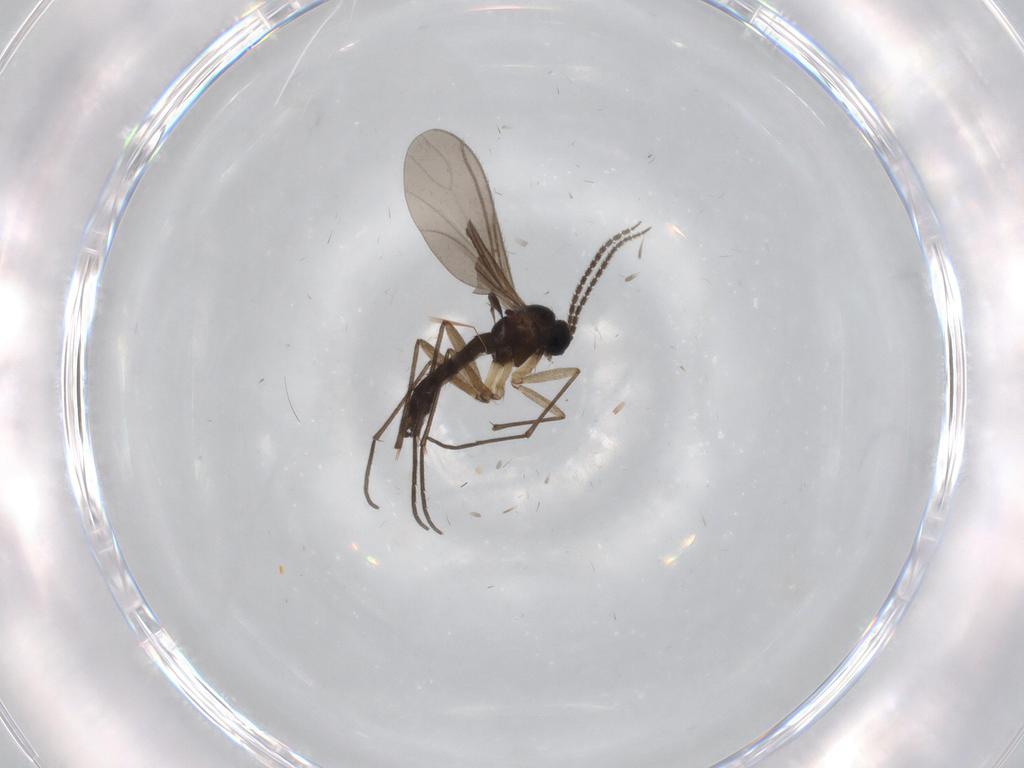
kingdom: Animalia
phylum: Arthropoda
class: Insecta
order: Diptera
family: Sciaridae
